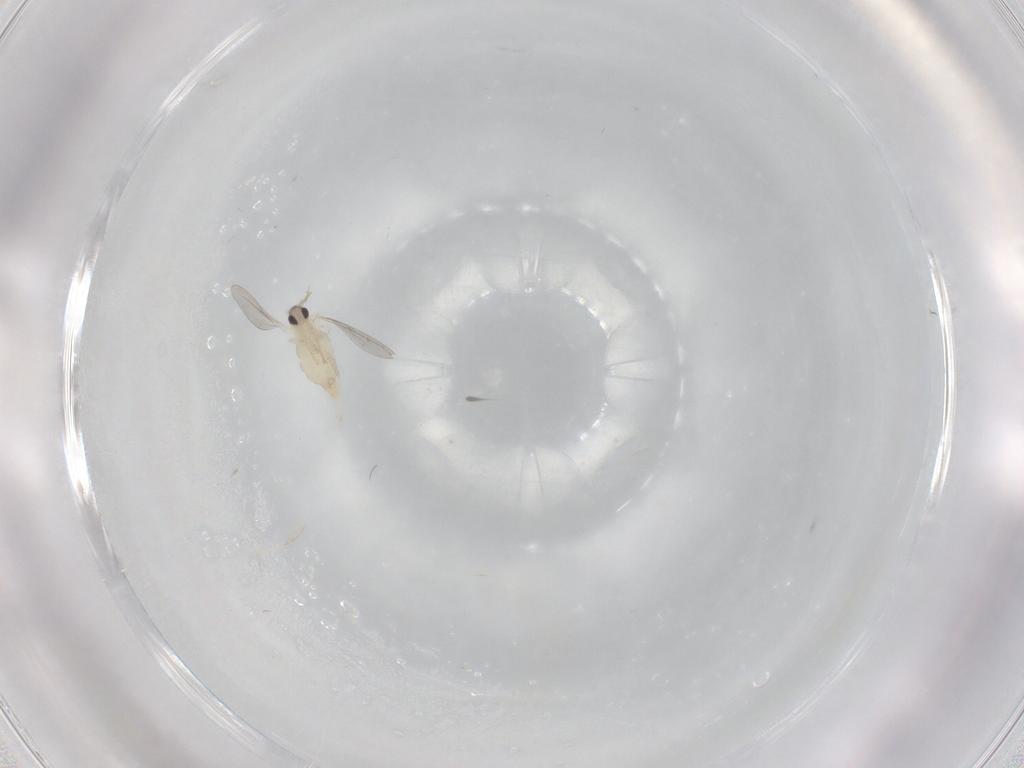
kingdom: Animalia
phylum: Arthropoda
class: Insecta
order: Diptera
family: Cecidomyiidae
